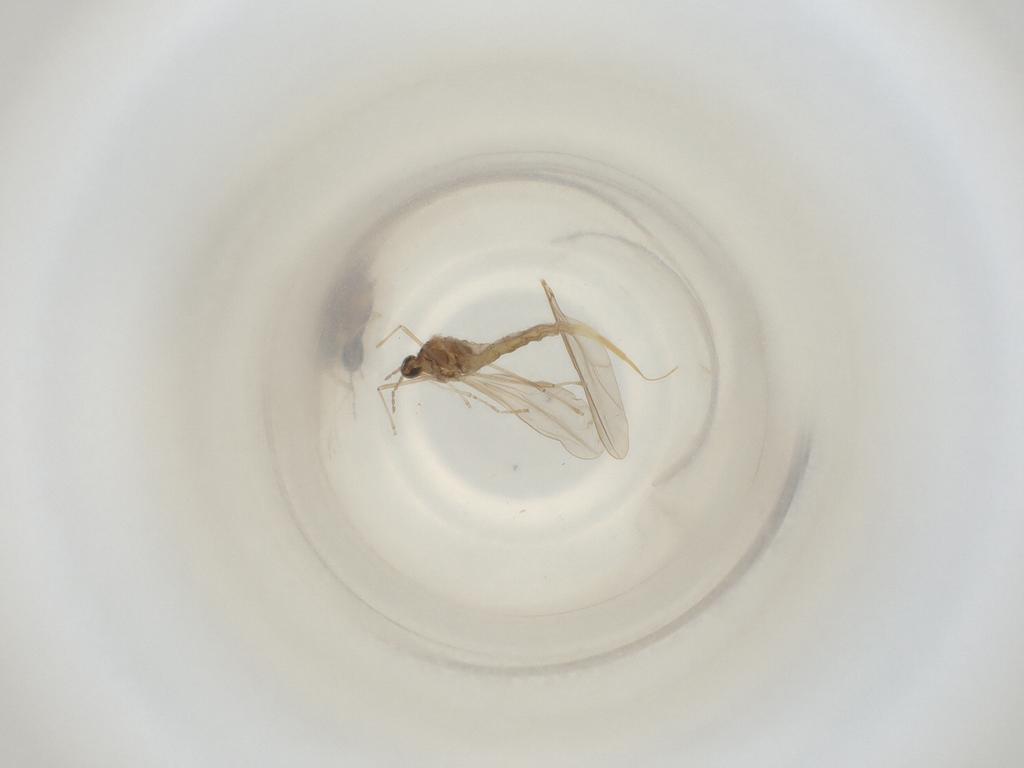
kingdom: Animalia
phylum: Arthropoda
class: Insecta
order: Diptera
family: Cecidomyiidae
